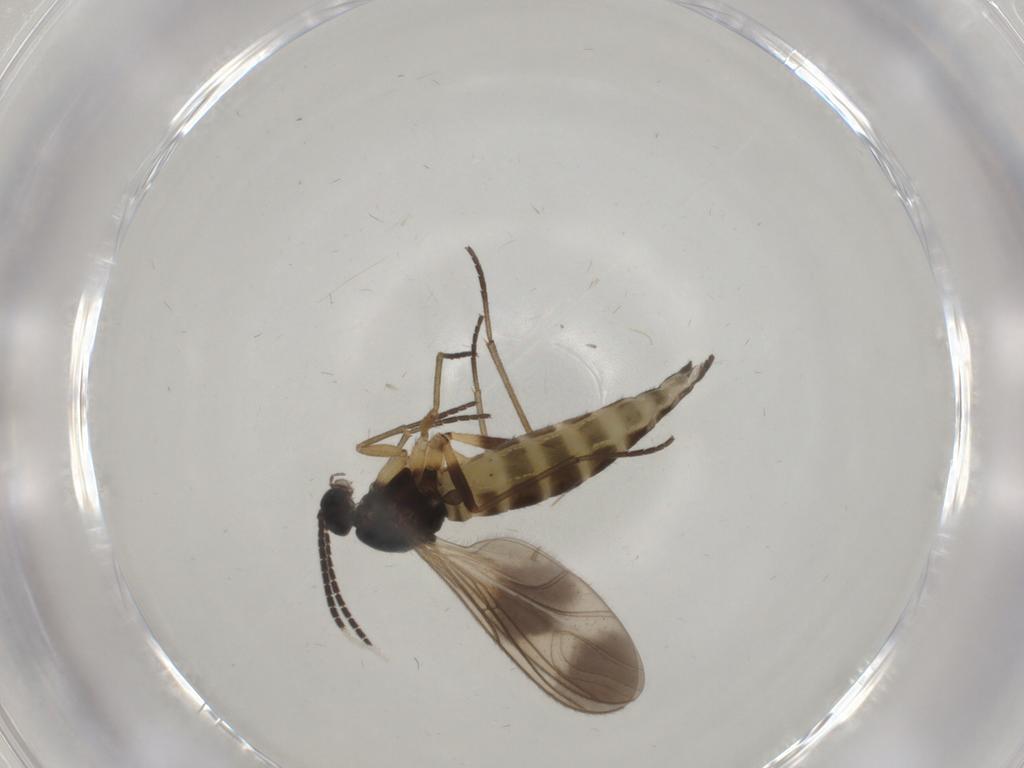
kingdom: Animalia
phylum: Arthropoda
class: Insecta
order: Diptera
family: Sciaridae
